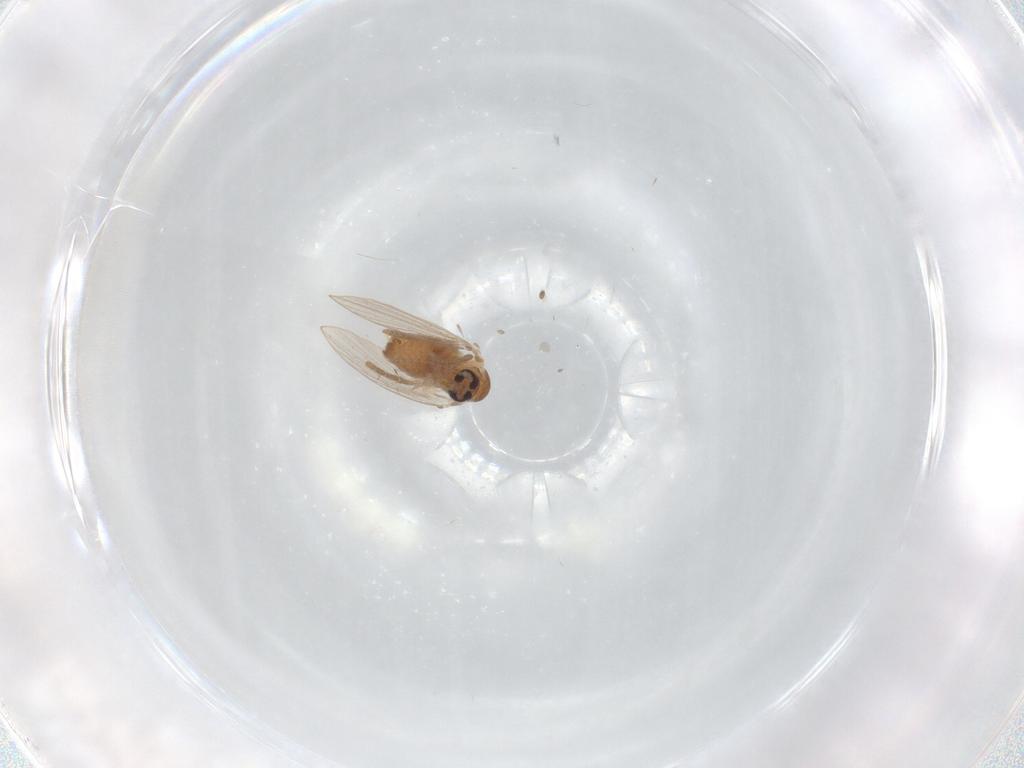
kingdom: Animalia
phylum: Arthropoda
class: Insecta
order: Diptera
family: Psychodidae
